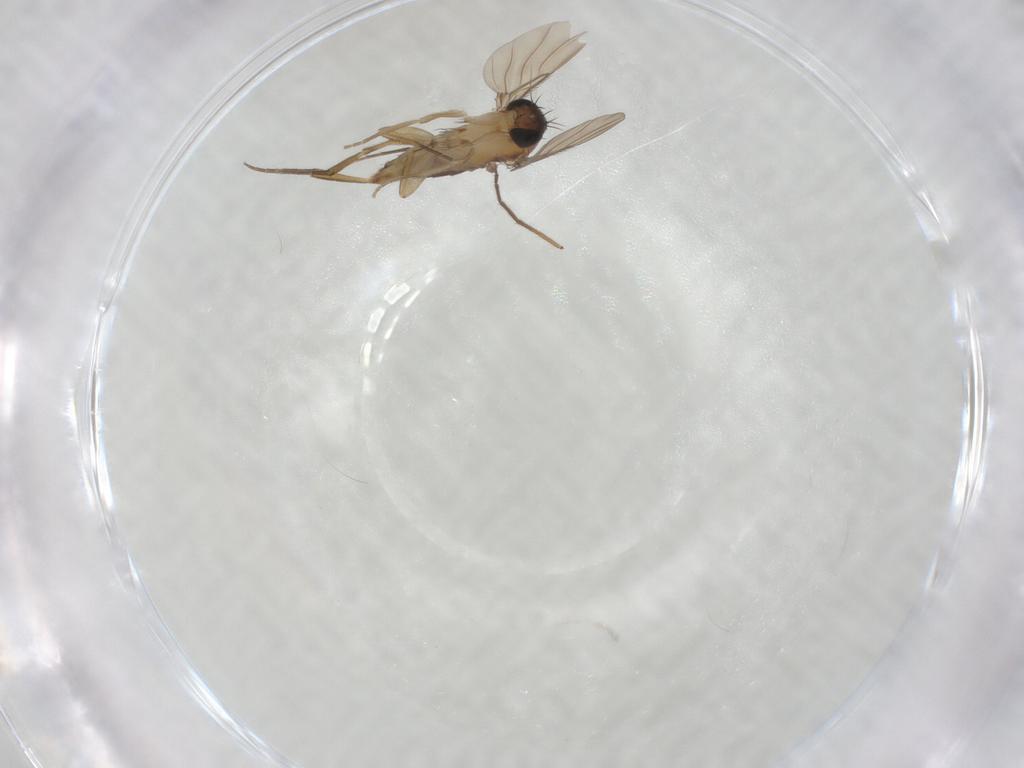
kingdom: Animalia
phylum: Arthropoda
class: Insecta
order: Diptera
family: Phoridae
